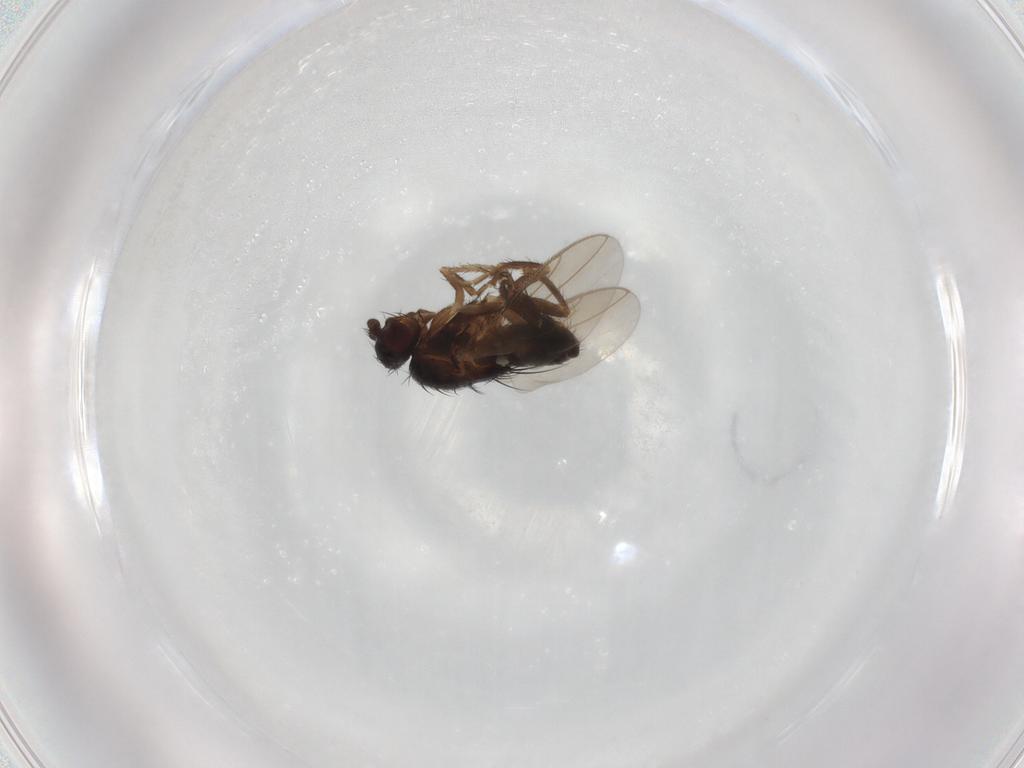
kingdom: Animalia
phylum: Arthropoda
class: Insecta
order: Diptera
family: Sphaeroceridae
